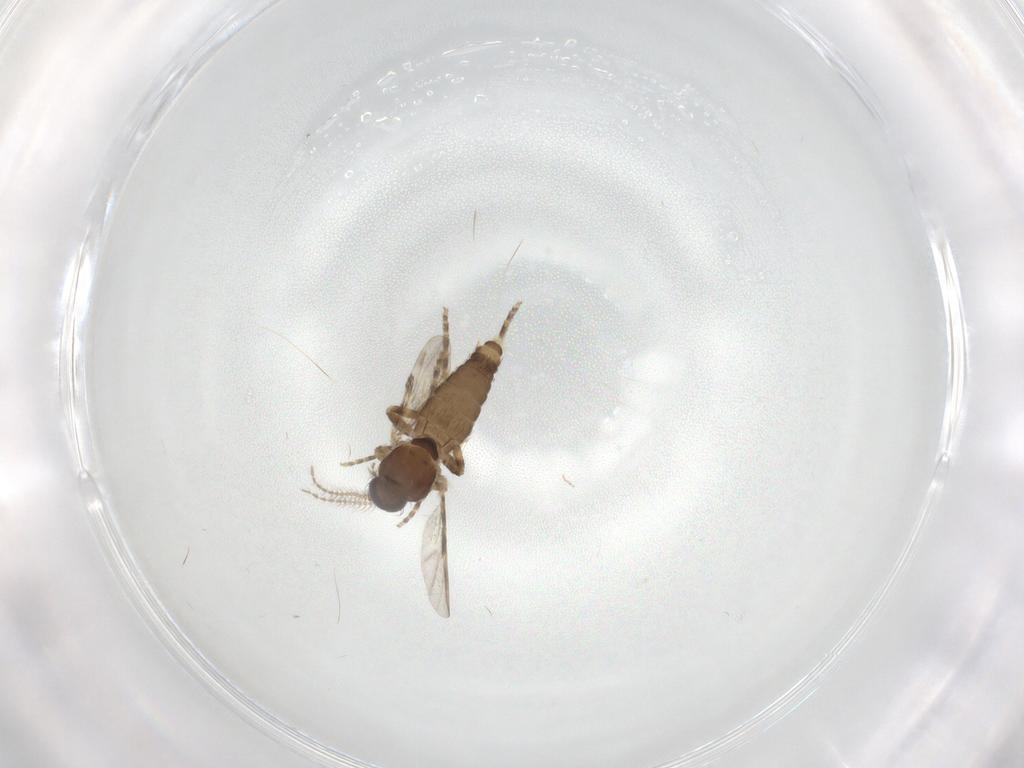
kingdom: Animalia
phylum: Arthropoda
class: Insecta
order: Diptera
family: Ceratopogonidae
